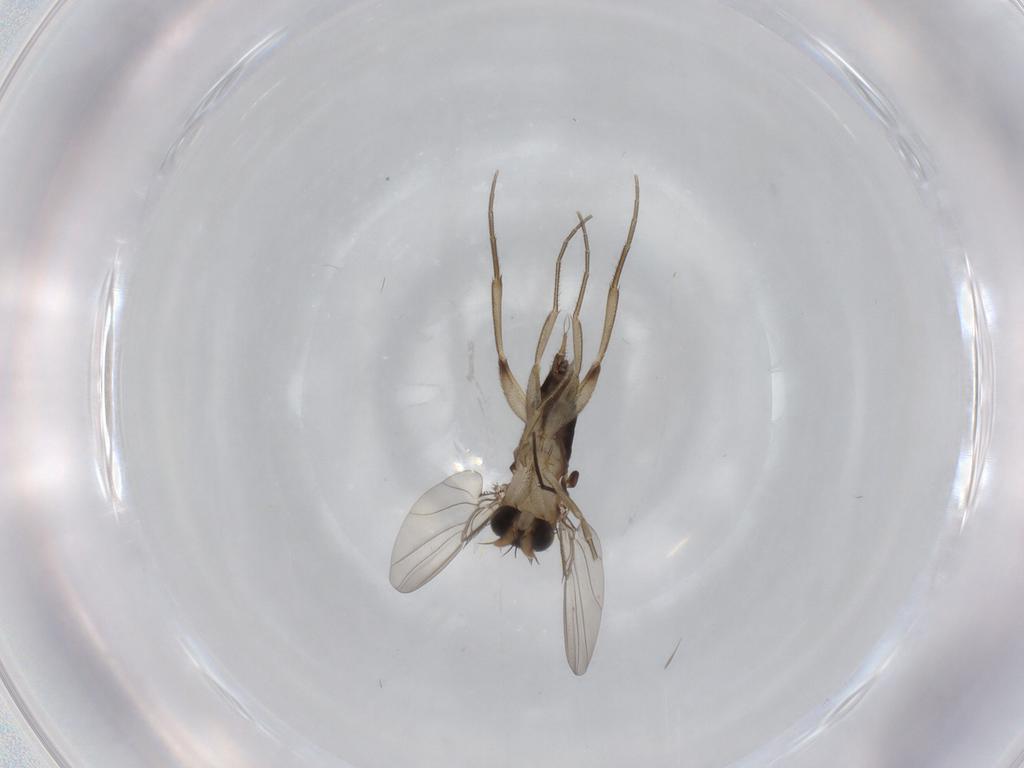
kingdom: Animalia
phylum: Arthropoda
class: Insecta
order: Diptera
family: Phoridae
